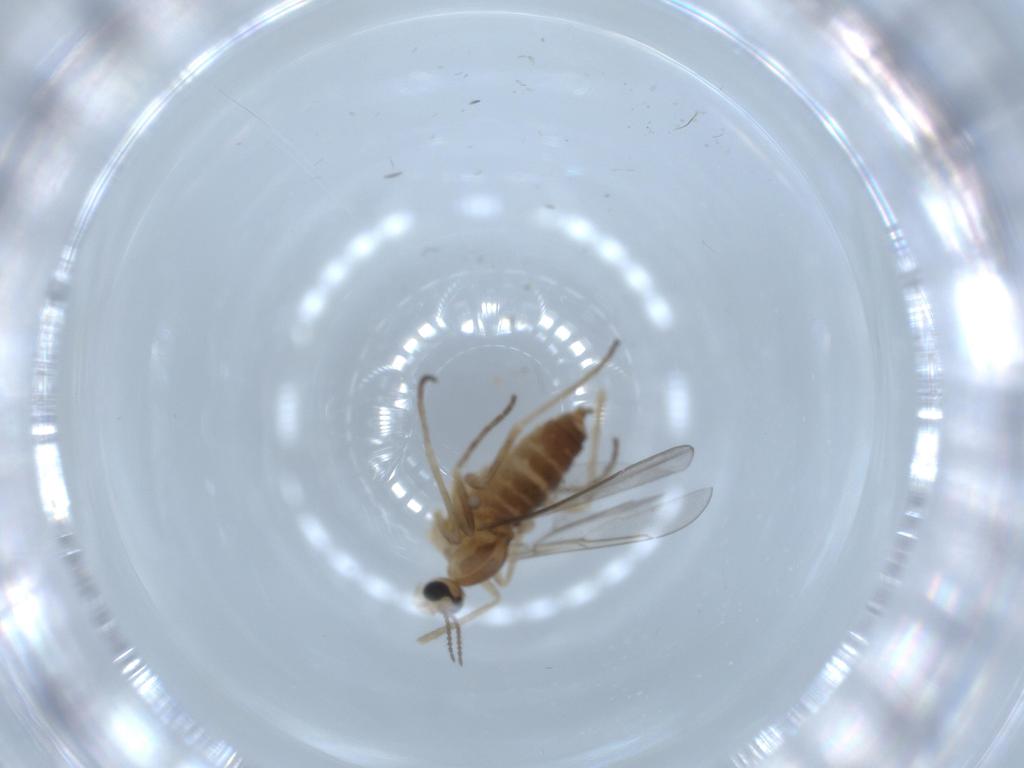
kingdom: Animalia
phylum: Arthropoda
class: Insecta
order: Diptera
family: Cecidomyiidae
